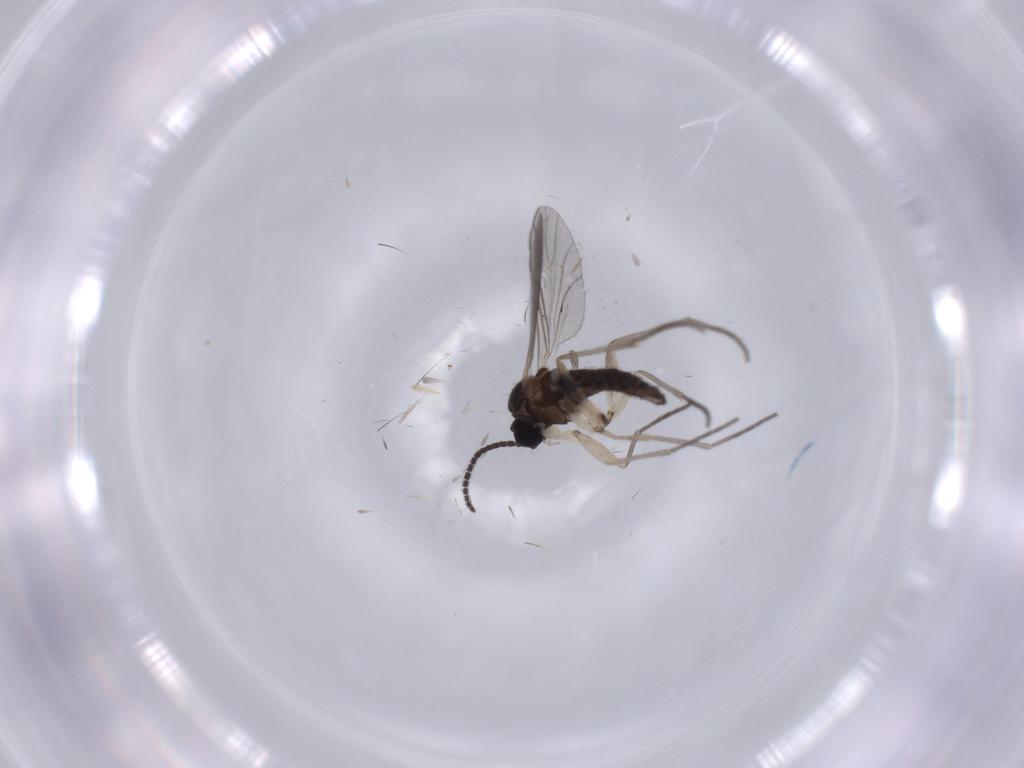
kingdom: Animalia
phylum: Arthropoda
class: Insecta
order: Diptera
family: Sciaridae
